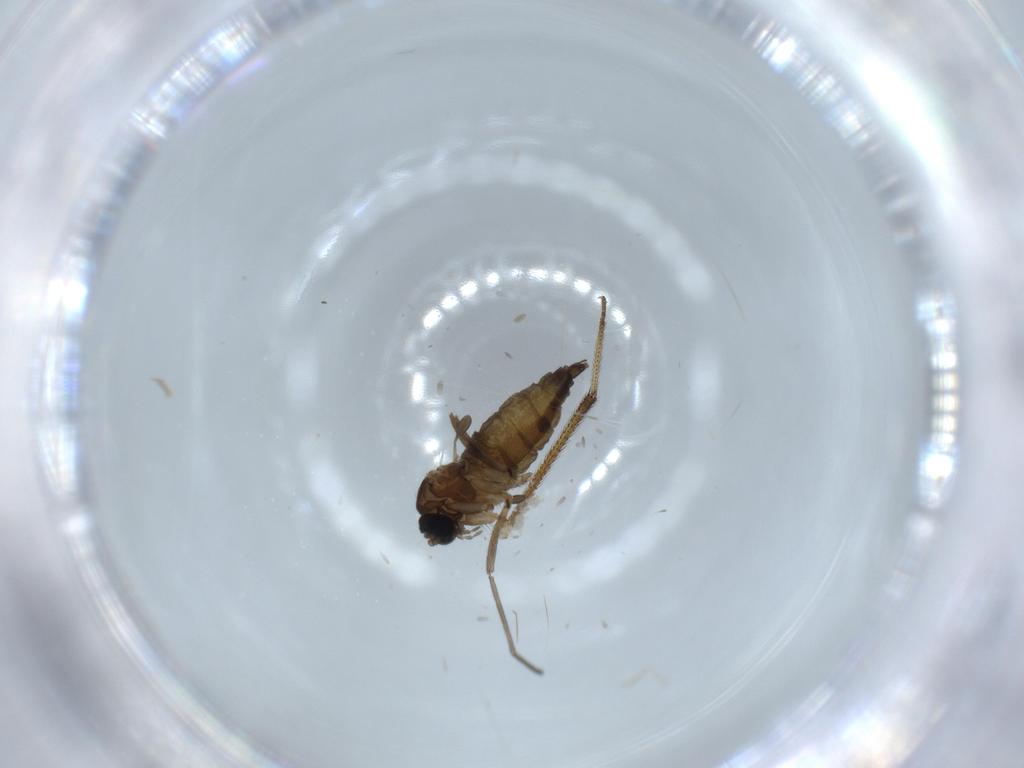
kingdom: Animalia
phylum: Arthropoda
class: Insecta
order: Diptera
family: Sciaridae
